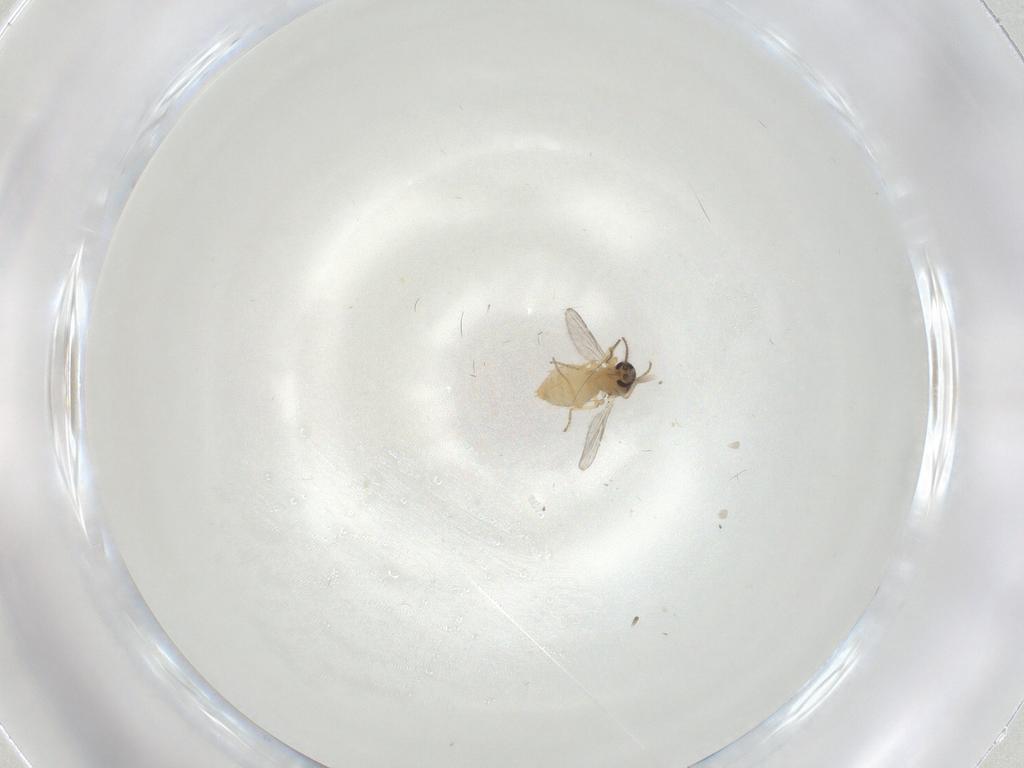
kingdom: Animalia
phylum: Arthropoda
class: Insecta
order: Diptera
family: Ceratopogonidae
